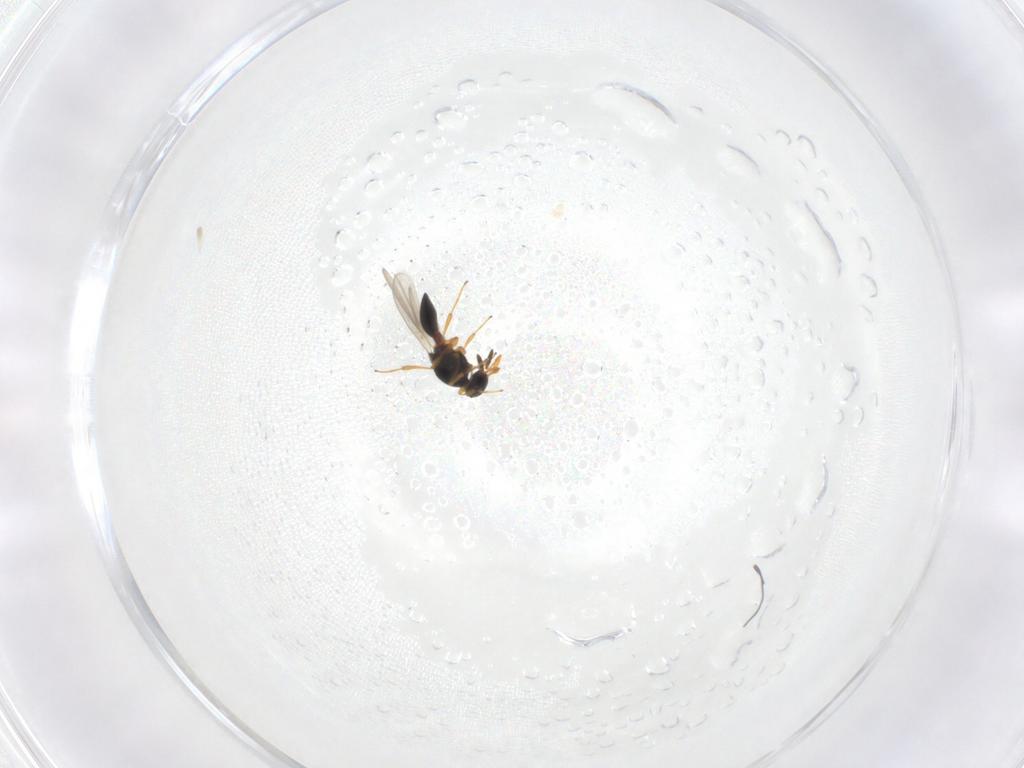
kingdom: Animalia
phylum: Arthropoda
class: Insecta
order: Hymenoptera
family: Platygastridae
